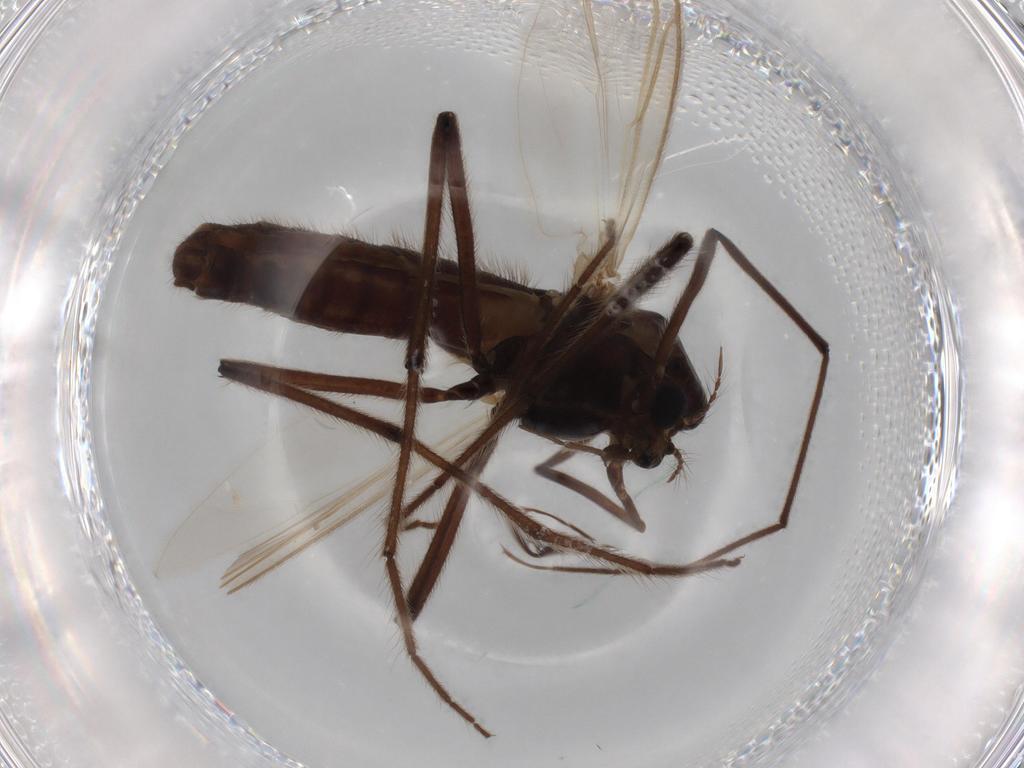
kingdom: Animalia
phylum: Arthropoda
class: Insecta
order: Diptera
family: Chironomidae
